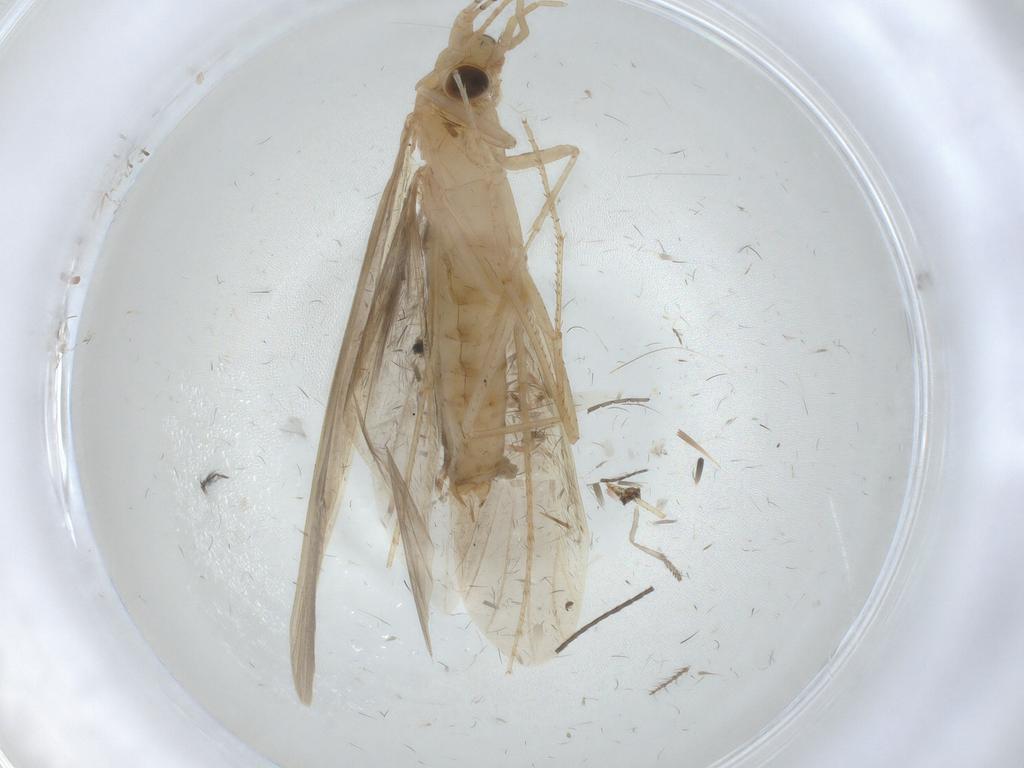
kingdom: Animalia
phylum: Arthropoda
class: Insecta
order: Trichoptera
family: Leptoceridae
